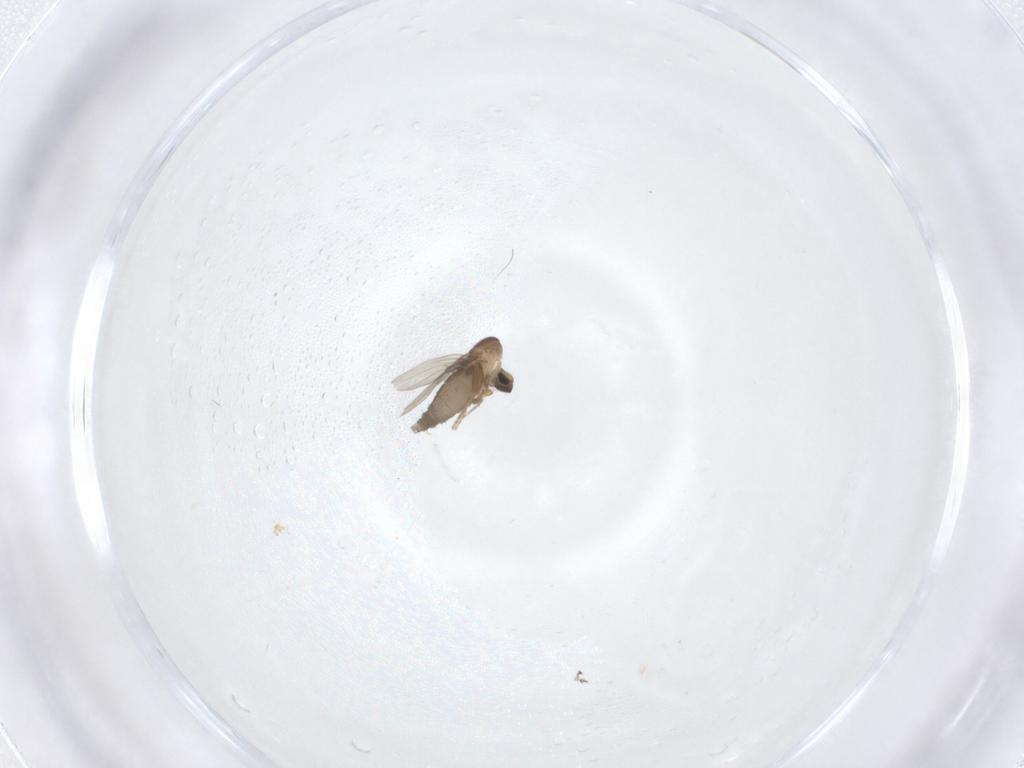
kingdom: Animalia
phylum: Arthropoda
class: Insecta
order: Diptera
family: Phoridae
